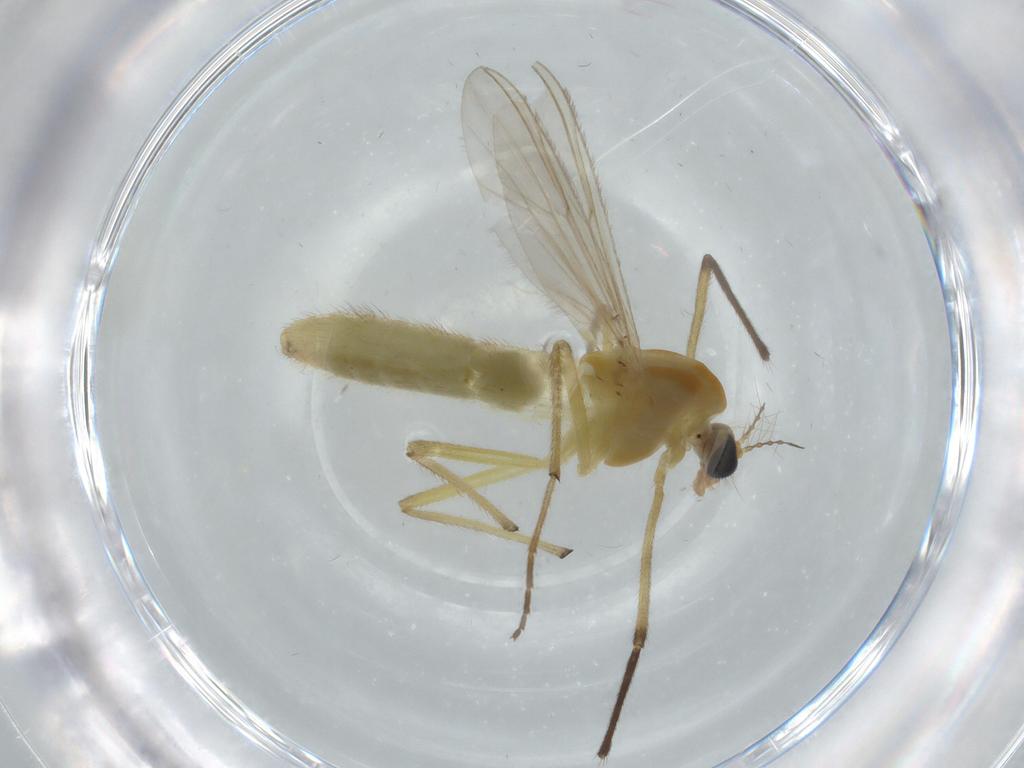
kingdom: Animalia
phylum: Arthropoda
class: Insecta
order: Diptera
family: Chironomidae
